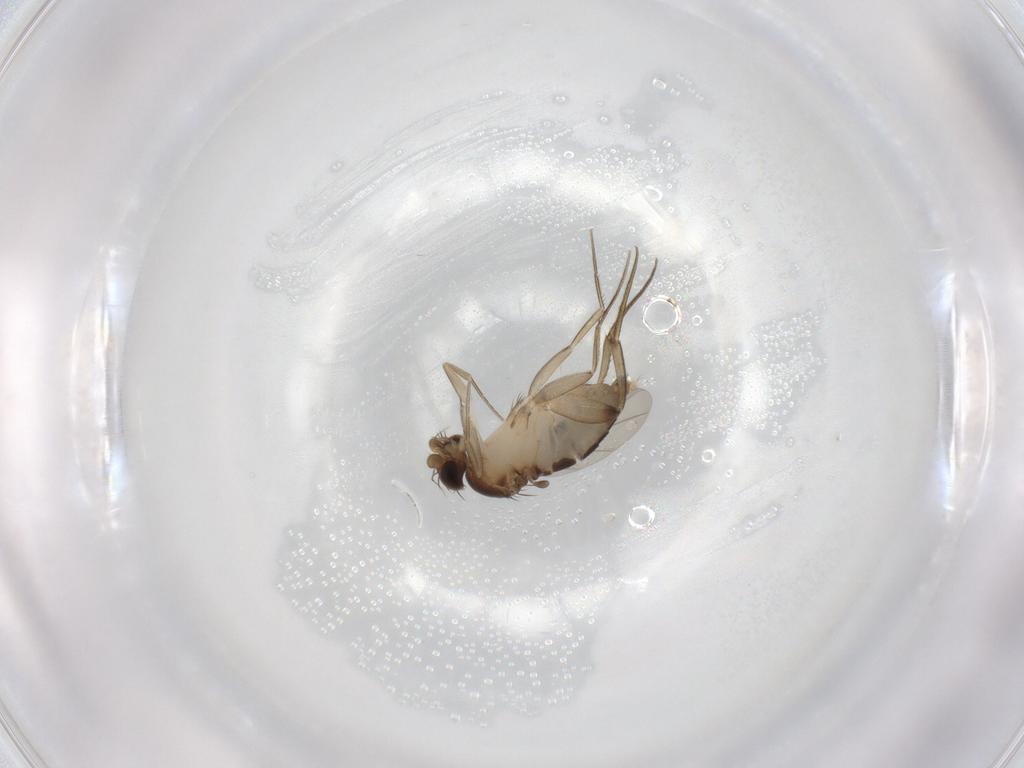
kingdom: Animalia
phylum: Arthropoda
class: Insecta
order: Diptera
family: Phoridae
